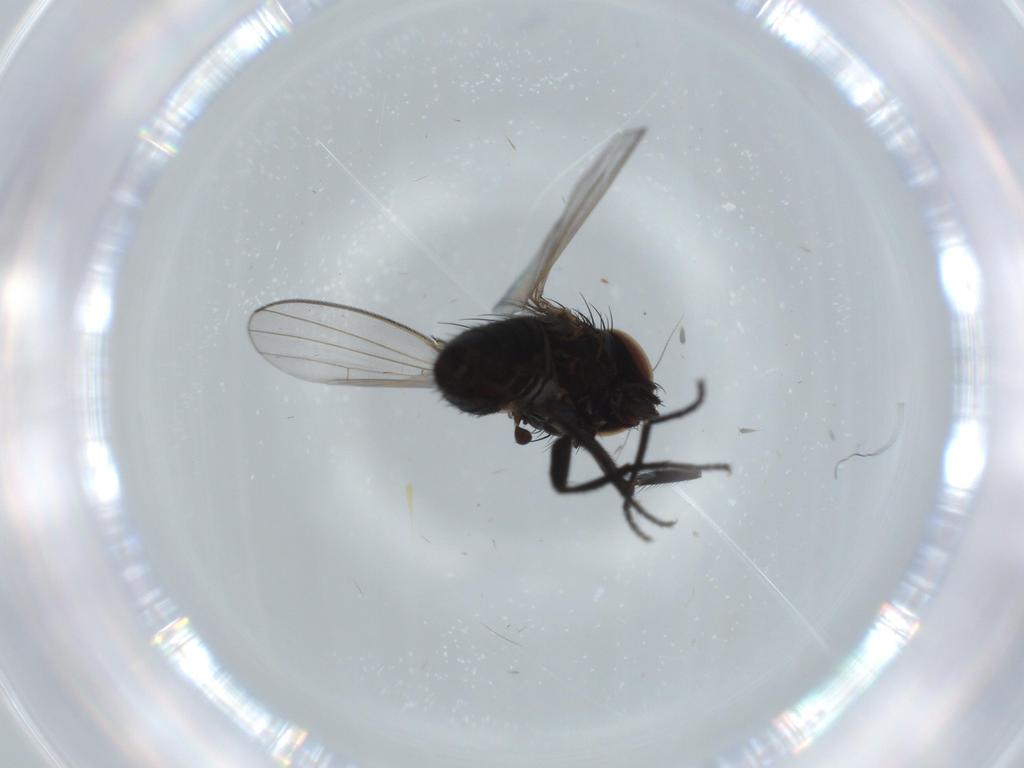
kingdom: Animalia
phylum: Arthropoda
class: Insecta
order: Diptera
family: Milichiidae
